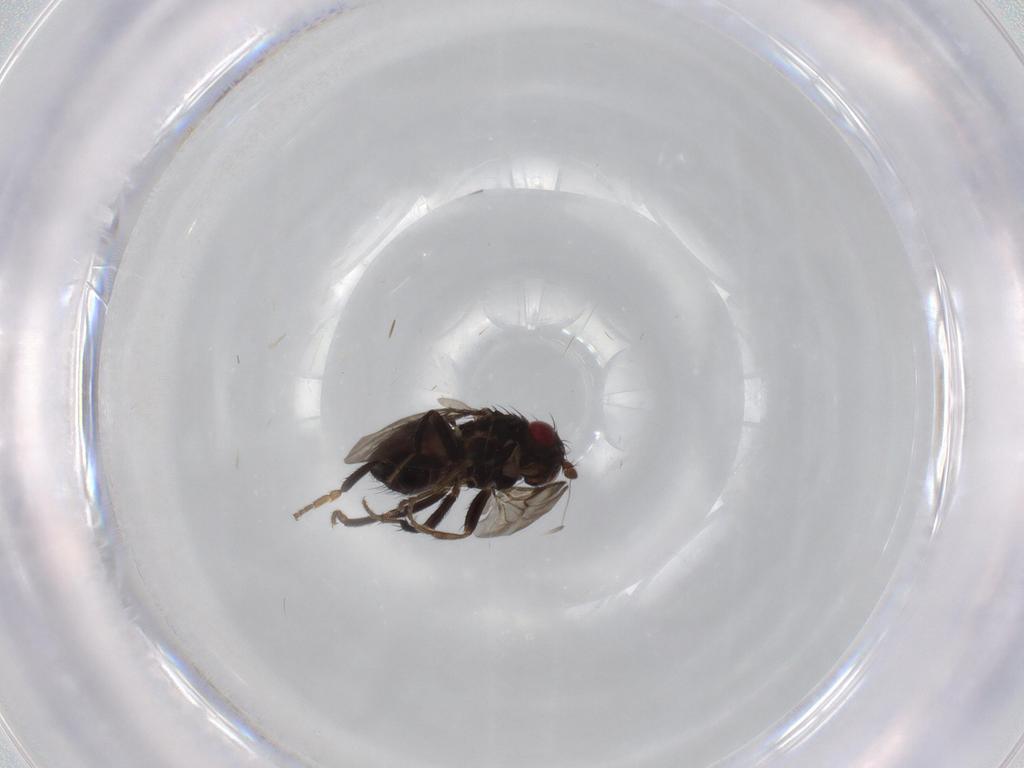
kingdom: Animalia
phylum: Arthropoda
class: Insecta
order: Diptera
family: Sphaeroceridae
